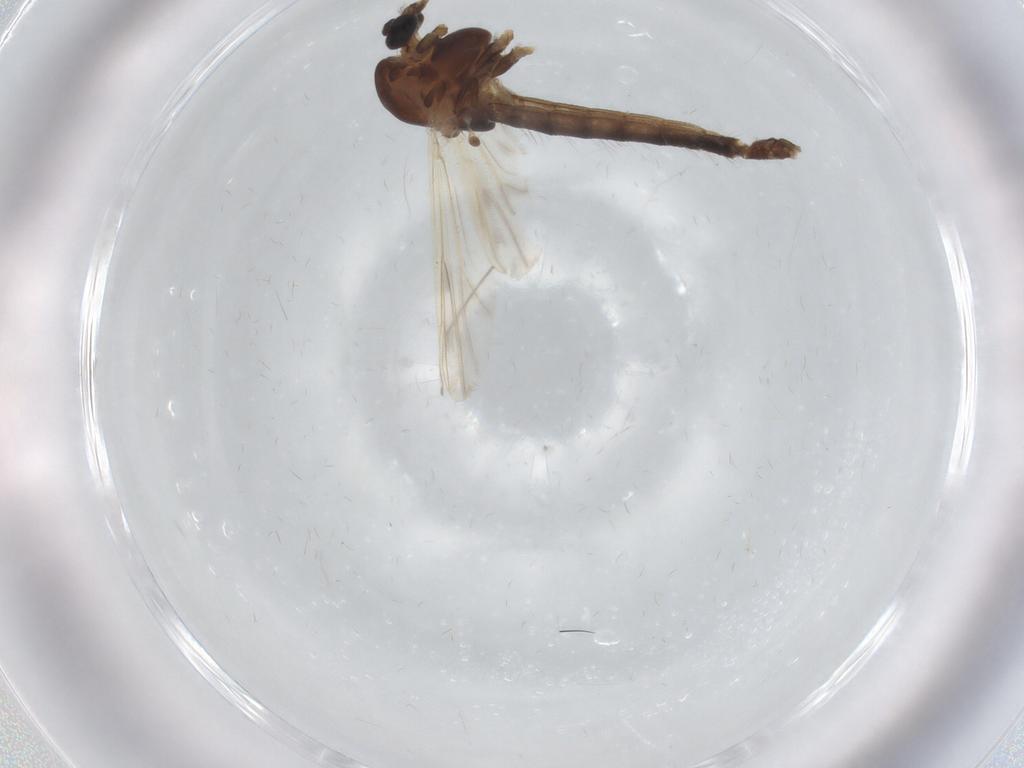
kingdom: Animalia
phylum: Arthropoda
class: Insecta
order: Diptera
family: Chironomidae
